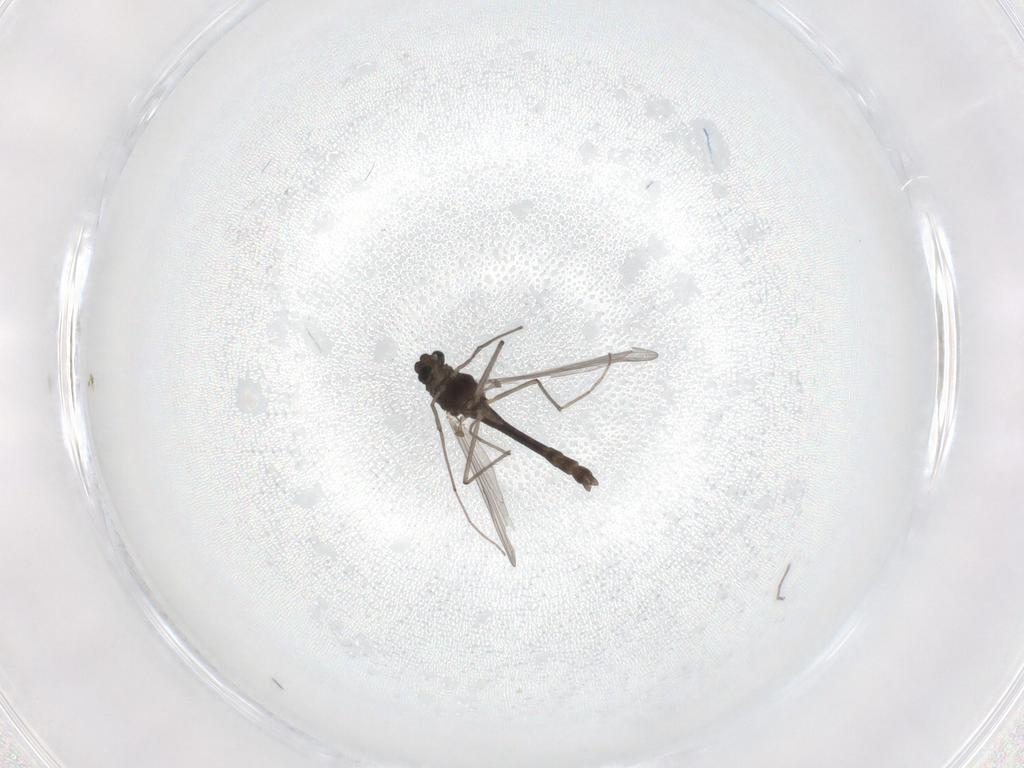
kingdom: Animalia
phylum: Arthropoda
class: Insecta
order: Diptera
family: Chironomidae
